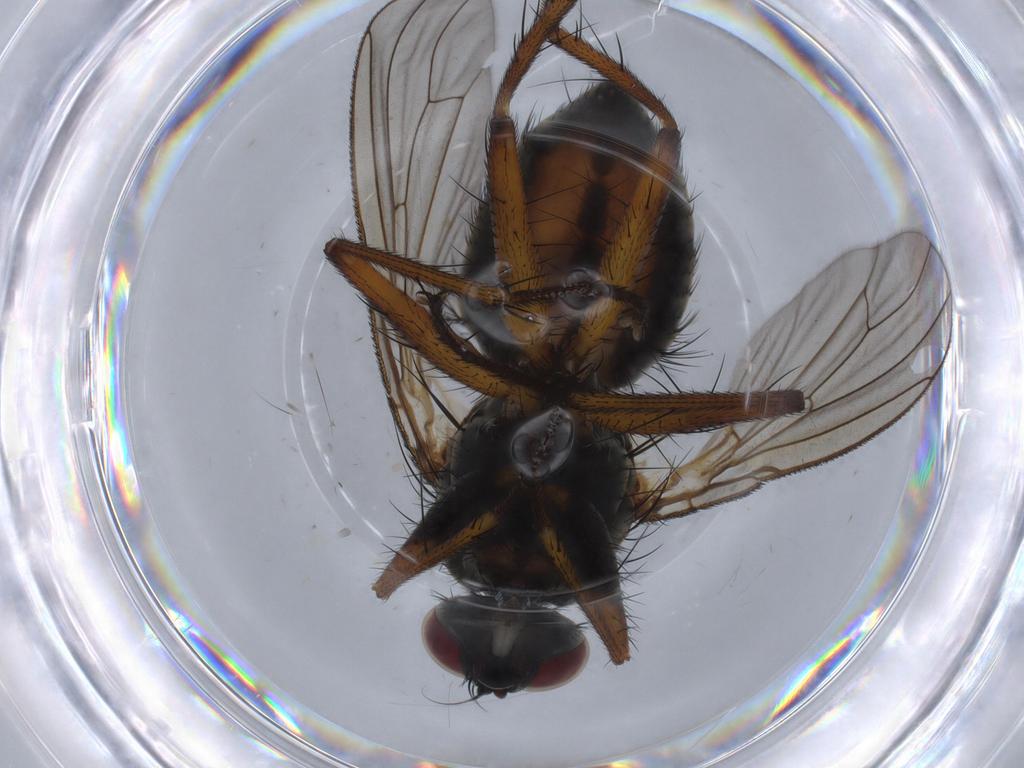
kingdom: Animalia
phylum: Arthropoda
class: Insecta
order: Diptera
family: Muscidae
